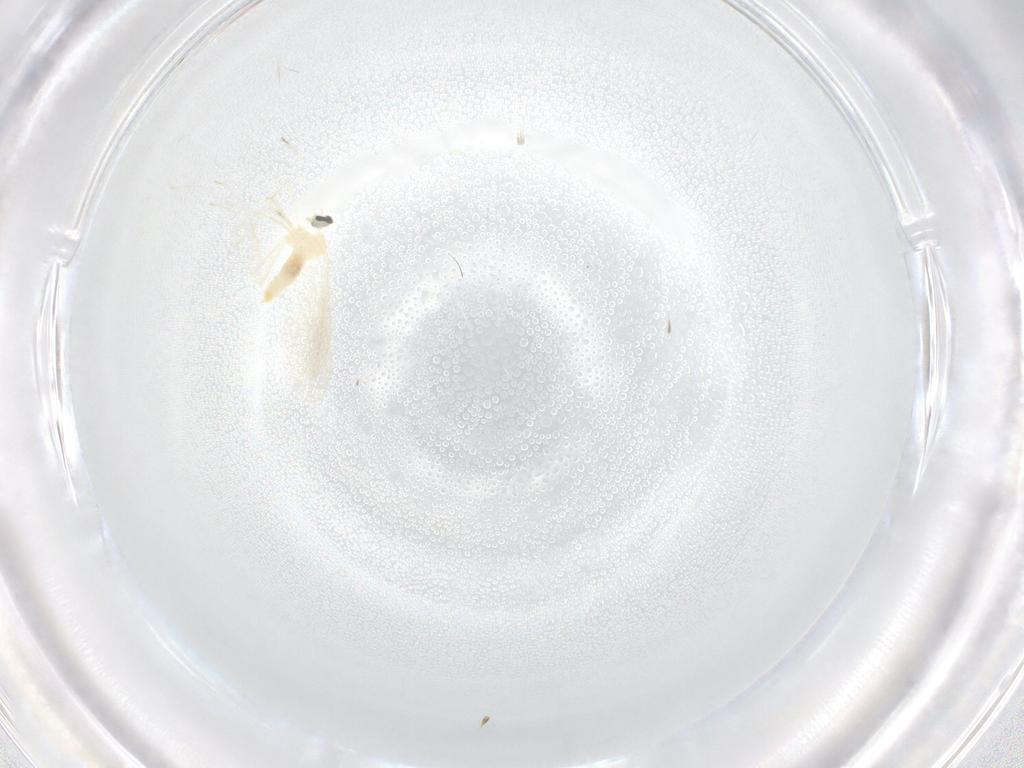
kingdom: Animalia
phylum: Arthropoda
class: Insecta
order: Diptera
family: Cecidomyiidae
